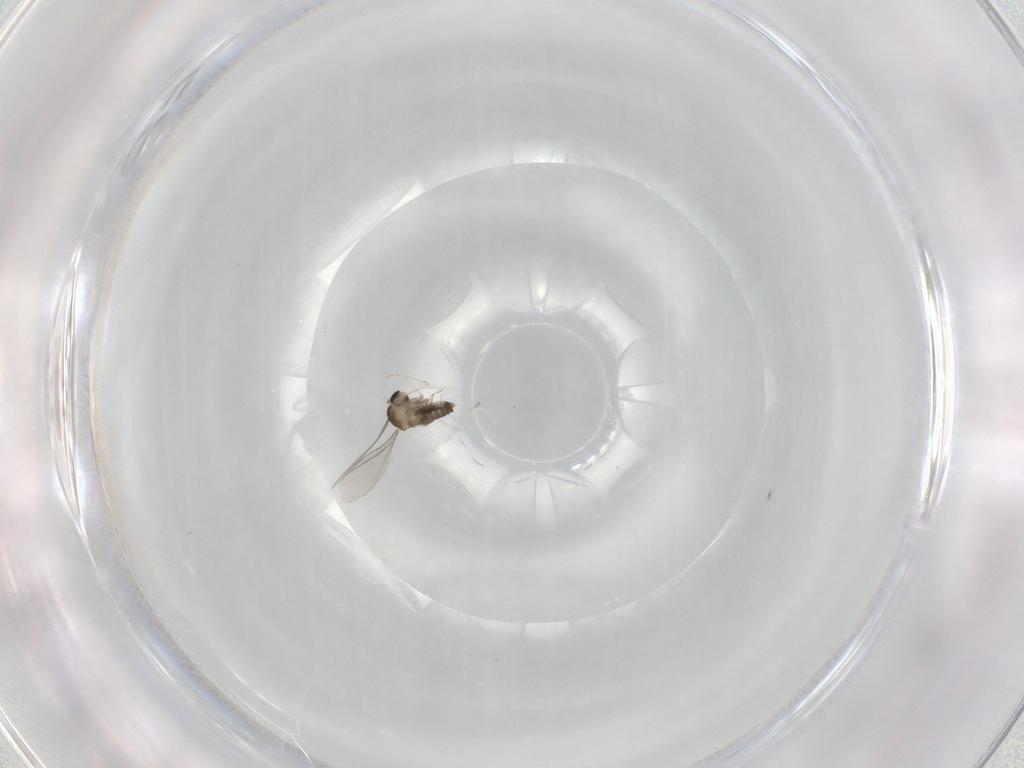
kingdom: Animalia
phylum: Arthropoda
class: Insecta
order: Diptera
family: Cecidomyiidae
